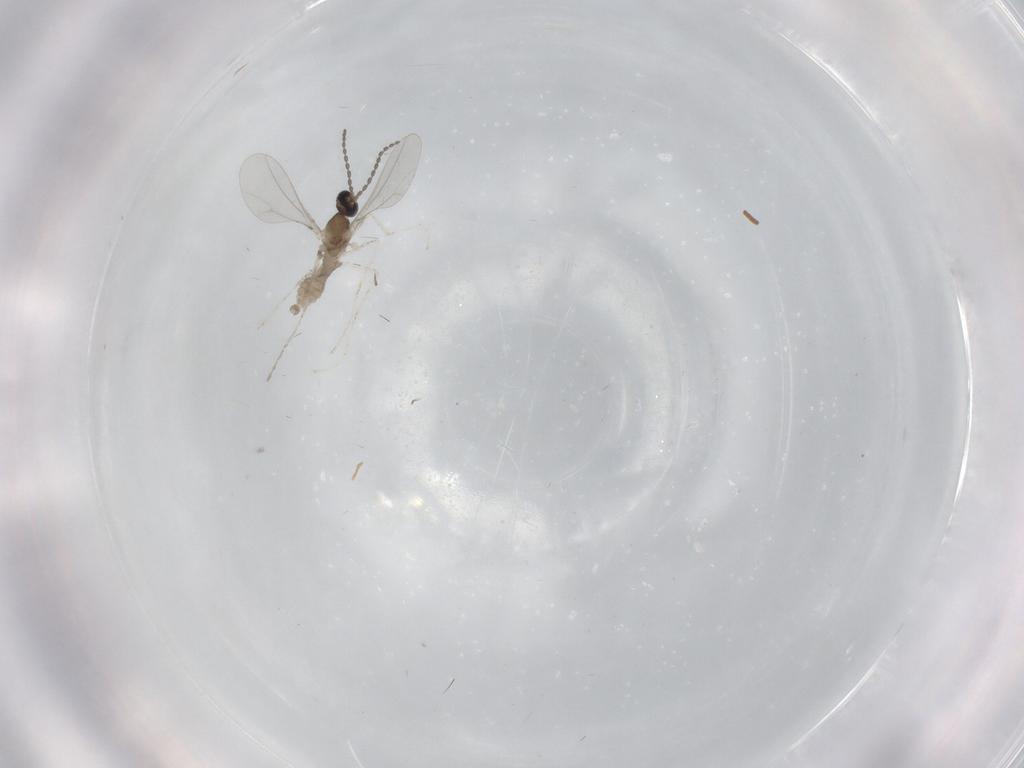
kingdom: Animalia
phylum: Arthropoda
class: Insecta
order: Diptera
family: Cecidomyiidae
